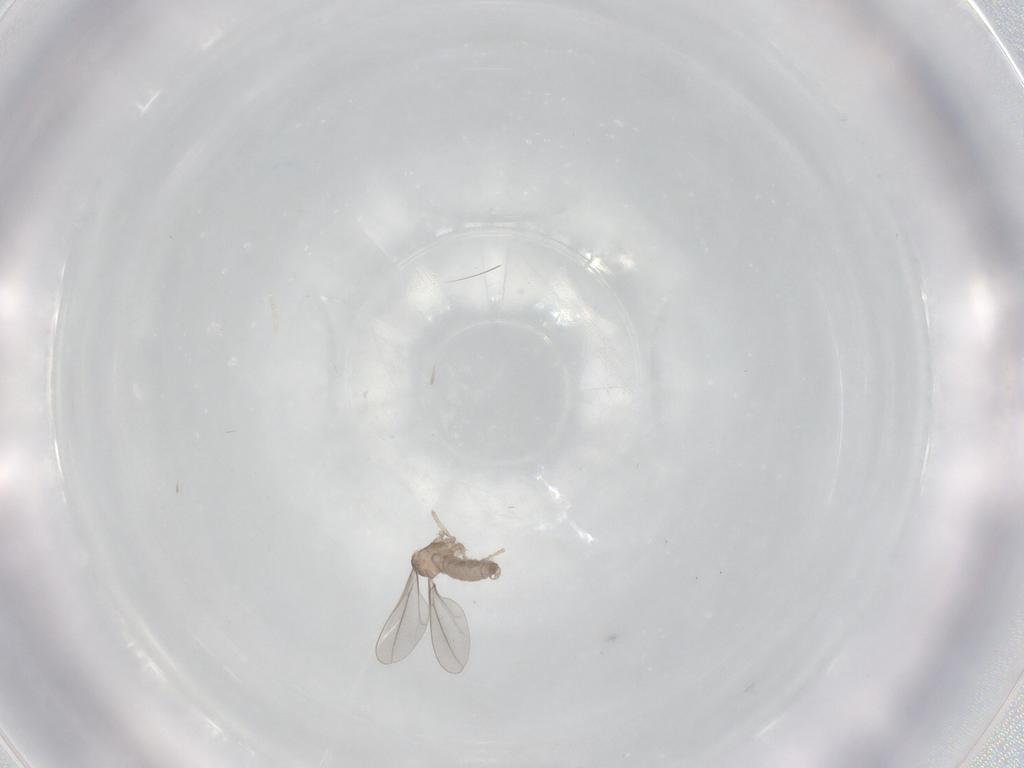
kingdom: Animalia
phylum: Arthropoda
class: Insecta
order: Diptera
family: Cecidomyiidae
